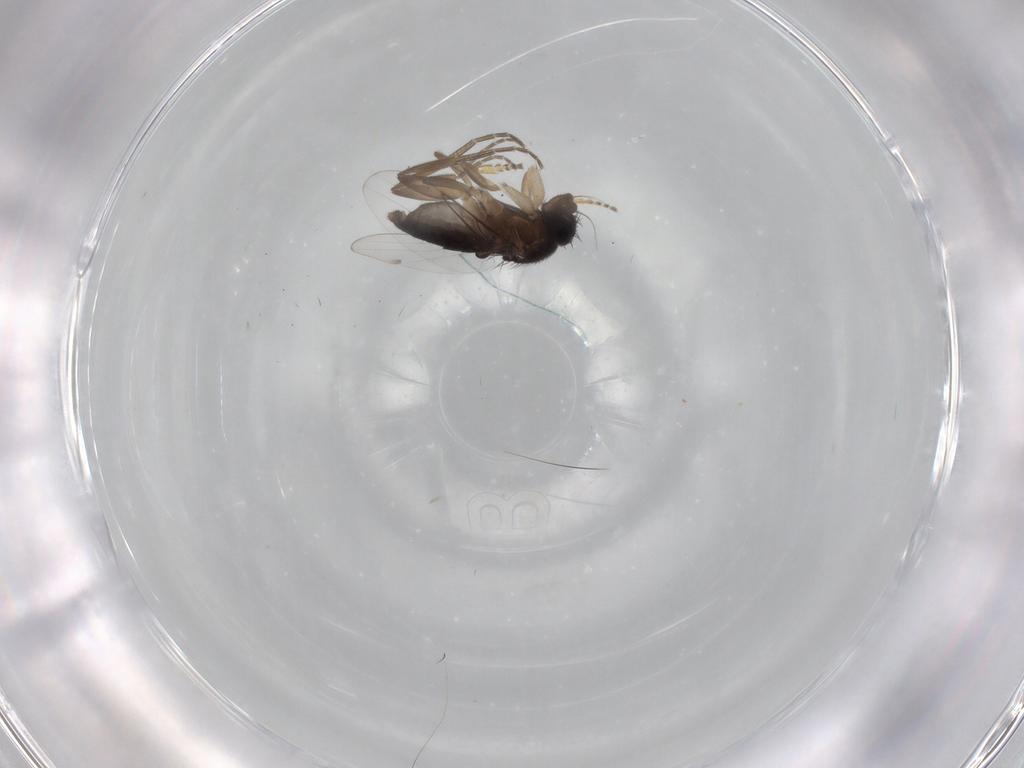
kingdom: Animalia
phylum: Arthropoda
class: Insecta
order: Diptera
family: Phoridae
